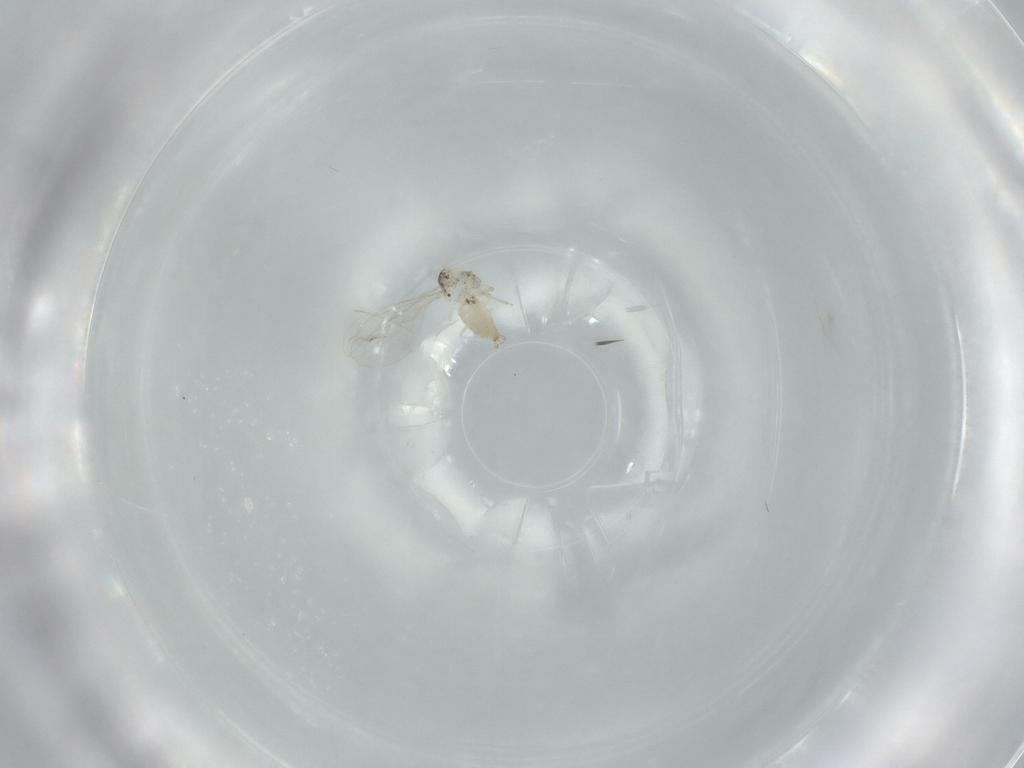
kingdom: Animalia
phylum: Arthropoda
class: Insecta
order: Diptera
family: Cecidomyiidae
